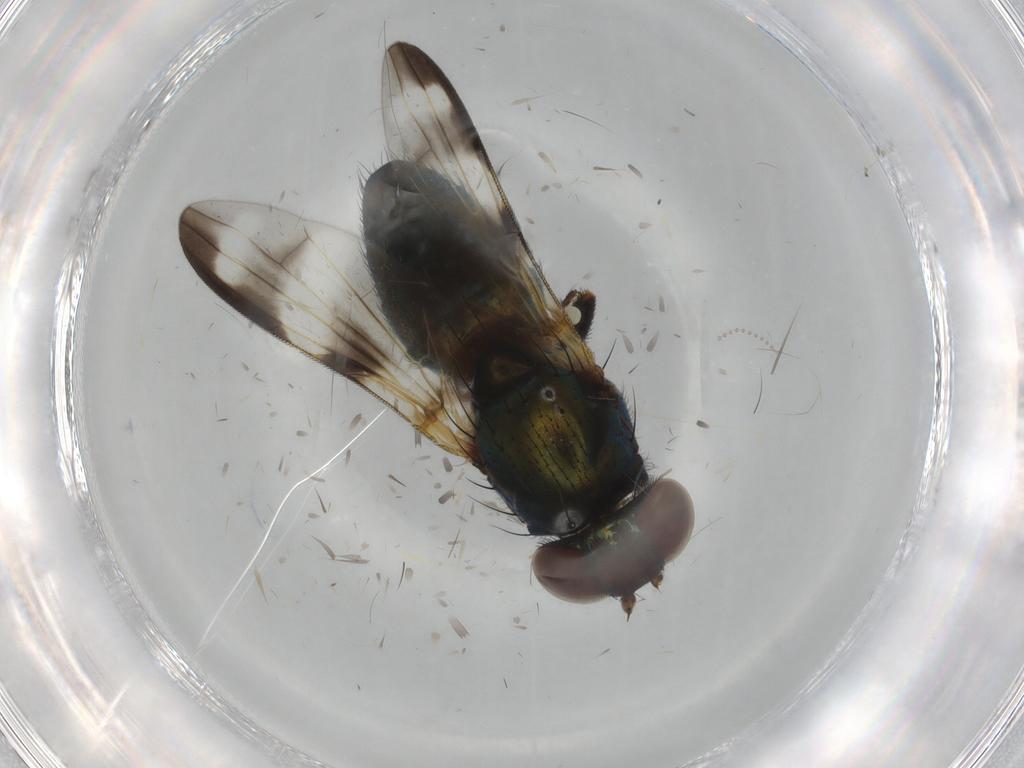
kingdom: Animalia
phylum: Arthropoda
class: Insecta
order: Diptera
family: Ulidiidae
